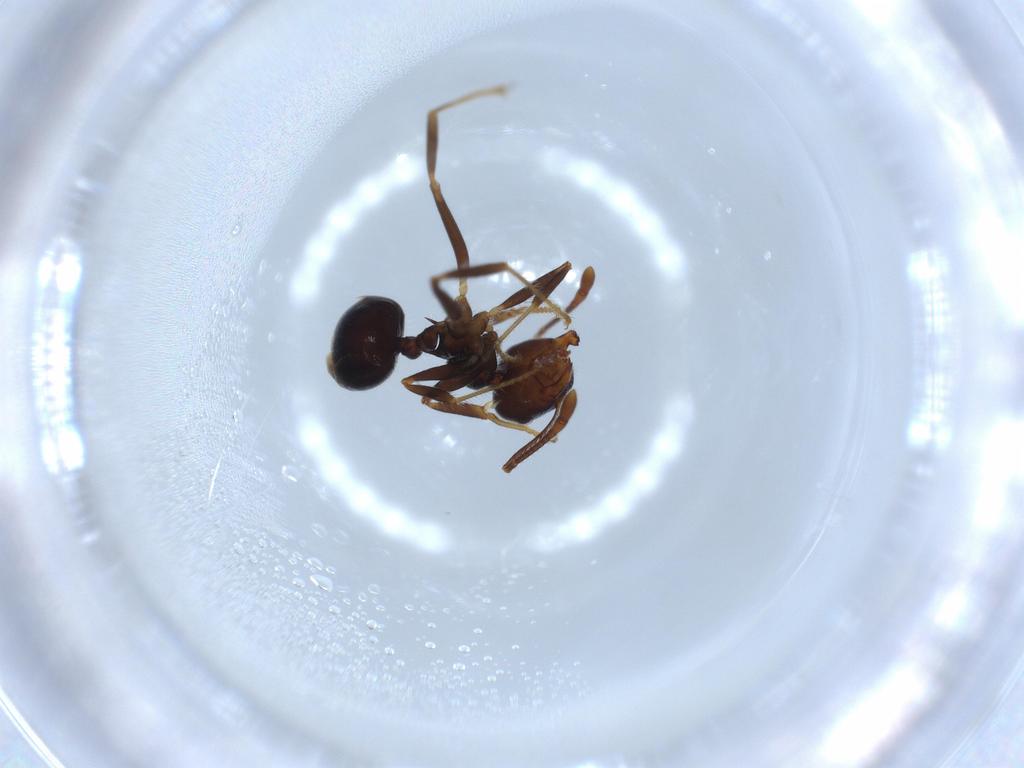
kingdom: Animalia
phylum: Arthropoda
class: Insecta
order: Hymenoptera
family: Formicidae
